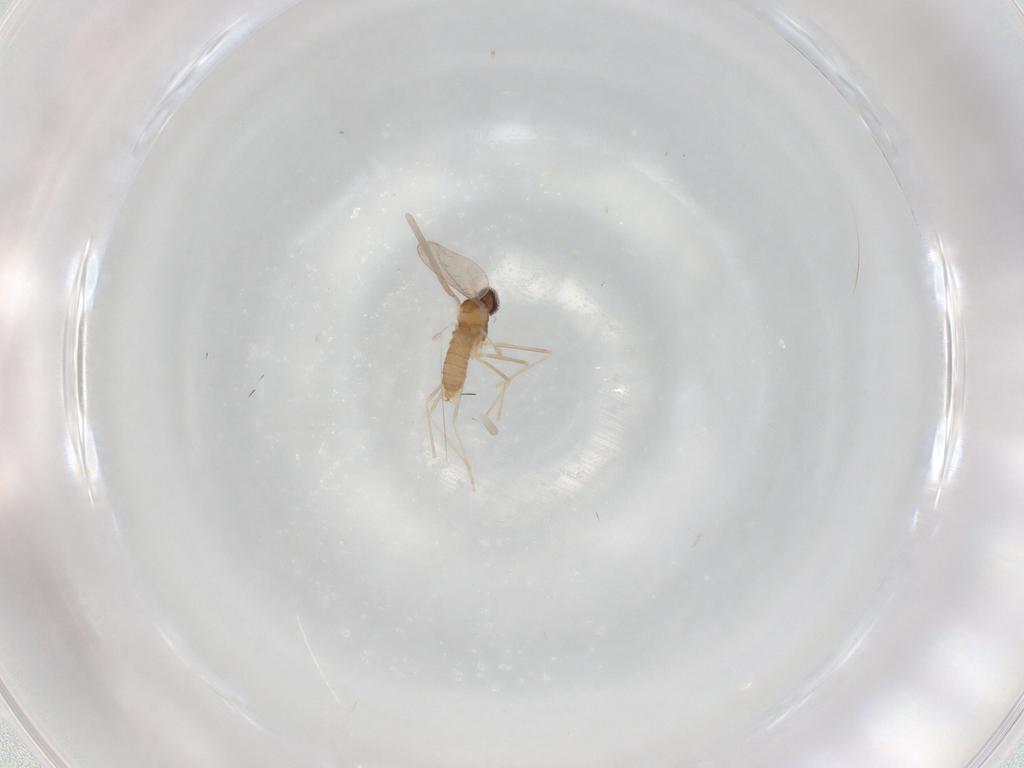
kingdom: Animalia
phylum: Arthropoda
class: Insecta
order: Diptera
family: Cecidomyiidae
